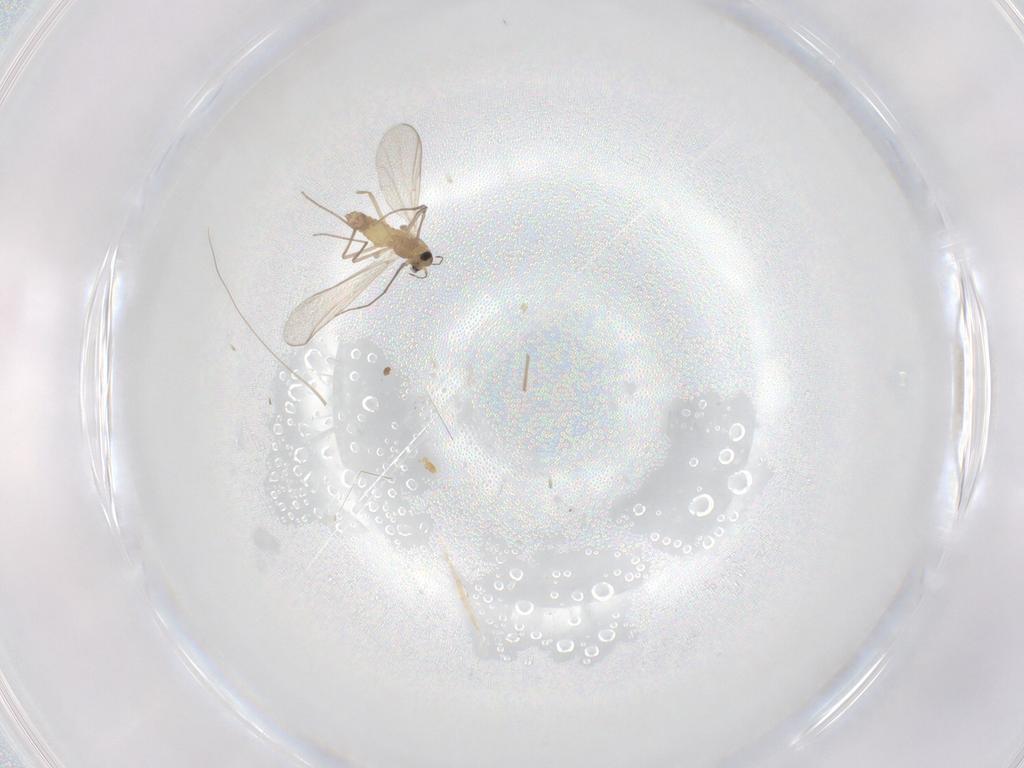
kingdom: Animalia
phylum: Arthropoda
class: Insecta
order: Diptera
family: Chironomidae
